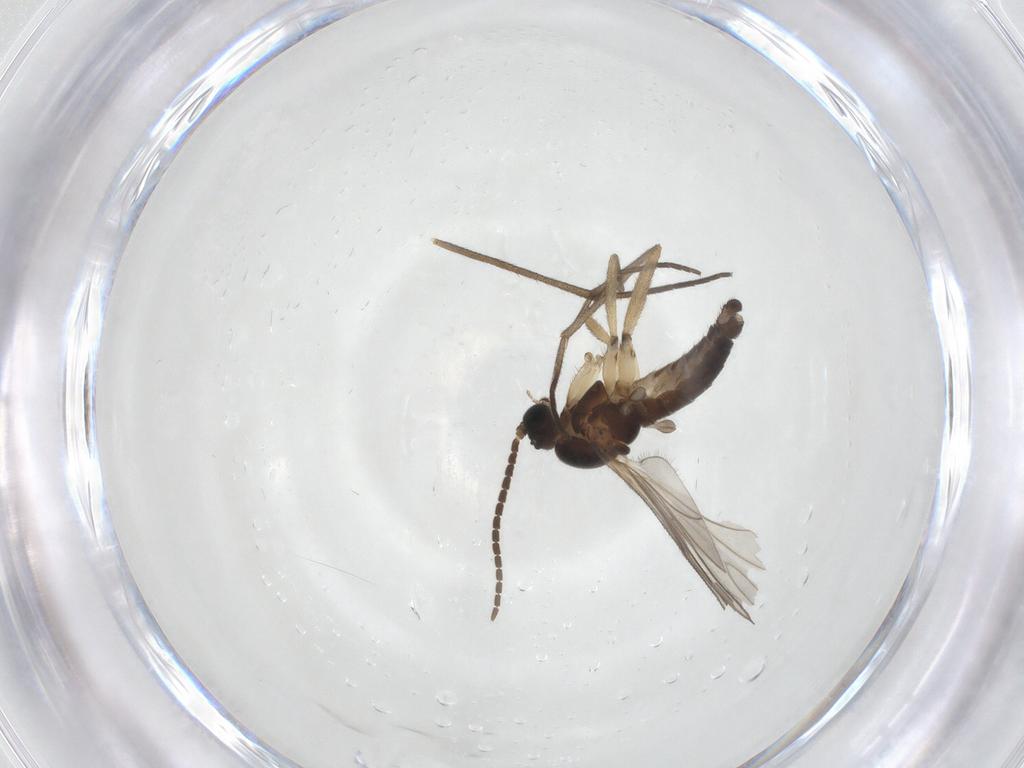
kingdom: Animalia
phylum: Arthropoda
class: Insecta
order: Diptera
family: Sciaridae
